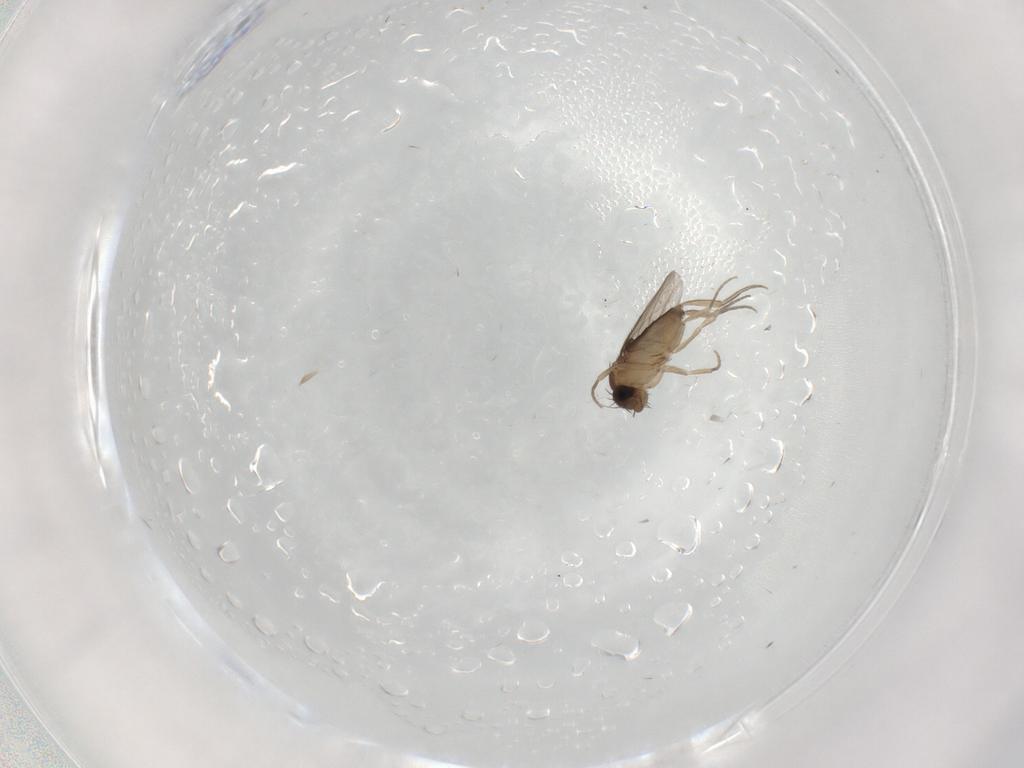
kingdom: Animalia
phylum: Arthropoda
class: Insecta
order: Diptera
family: Phoridae
